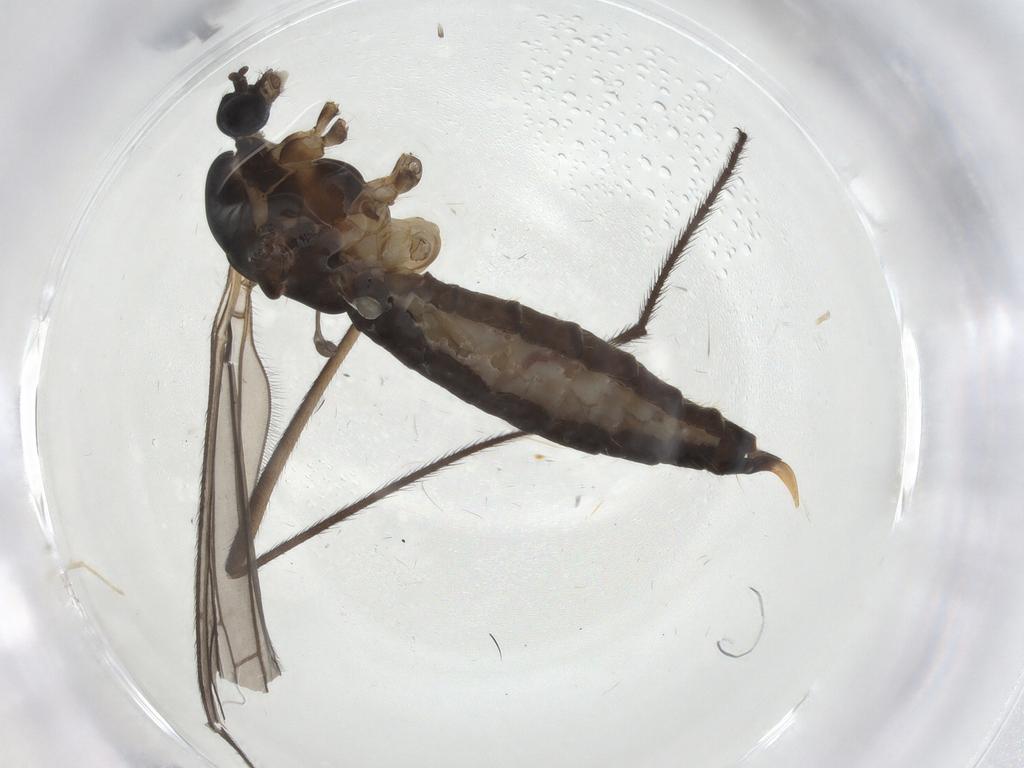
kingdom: Animalia
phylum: Arthropoda
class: Insecta
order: Diptera
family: Limoniidae
